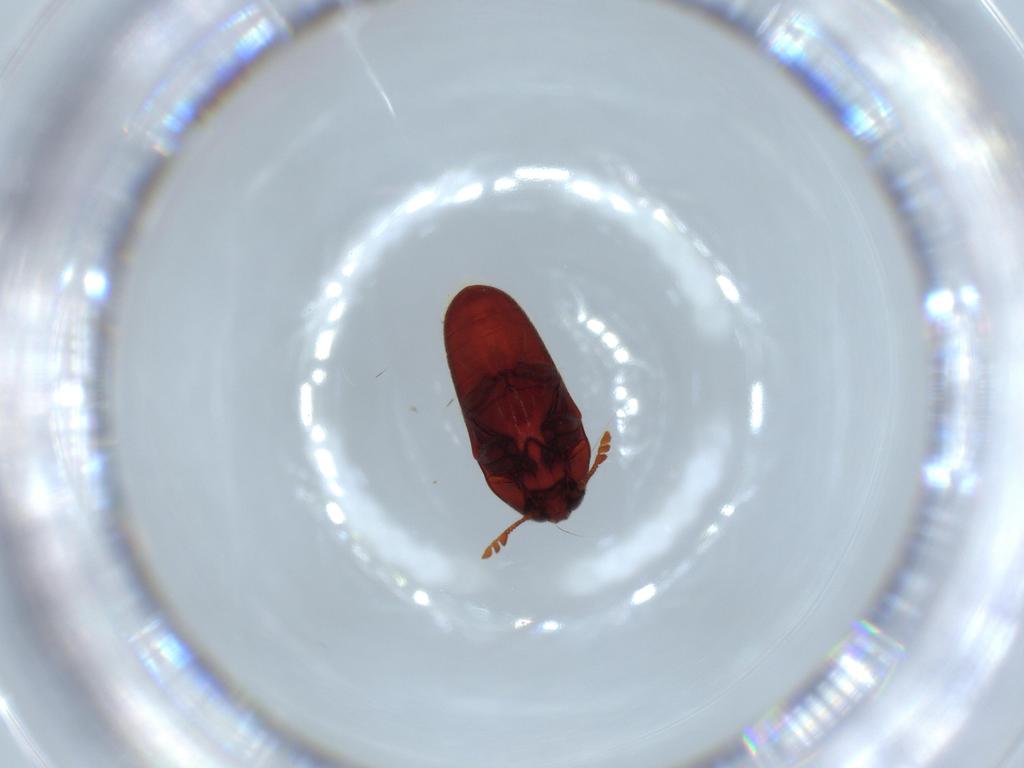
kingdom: Animalia
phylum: Arthropoda
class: Insecta
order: Coleoptera
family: Throscidae
